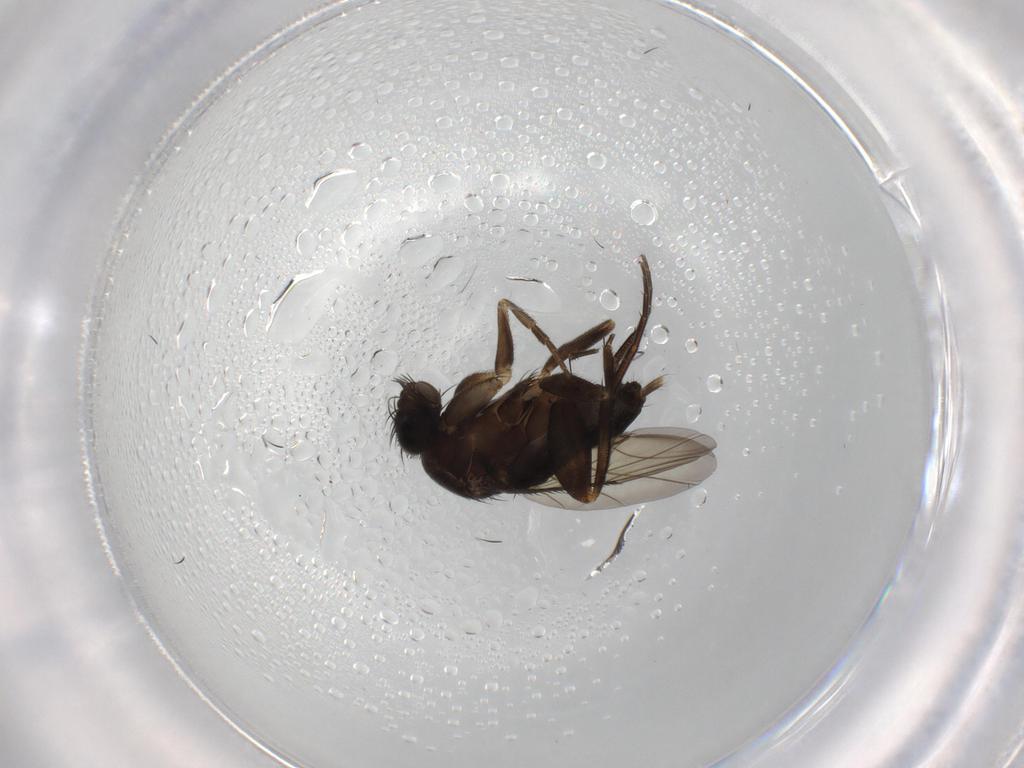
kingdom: Animalia
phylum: Arthropoda
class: Insecta
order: Diptera
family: Phoridae
